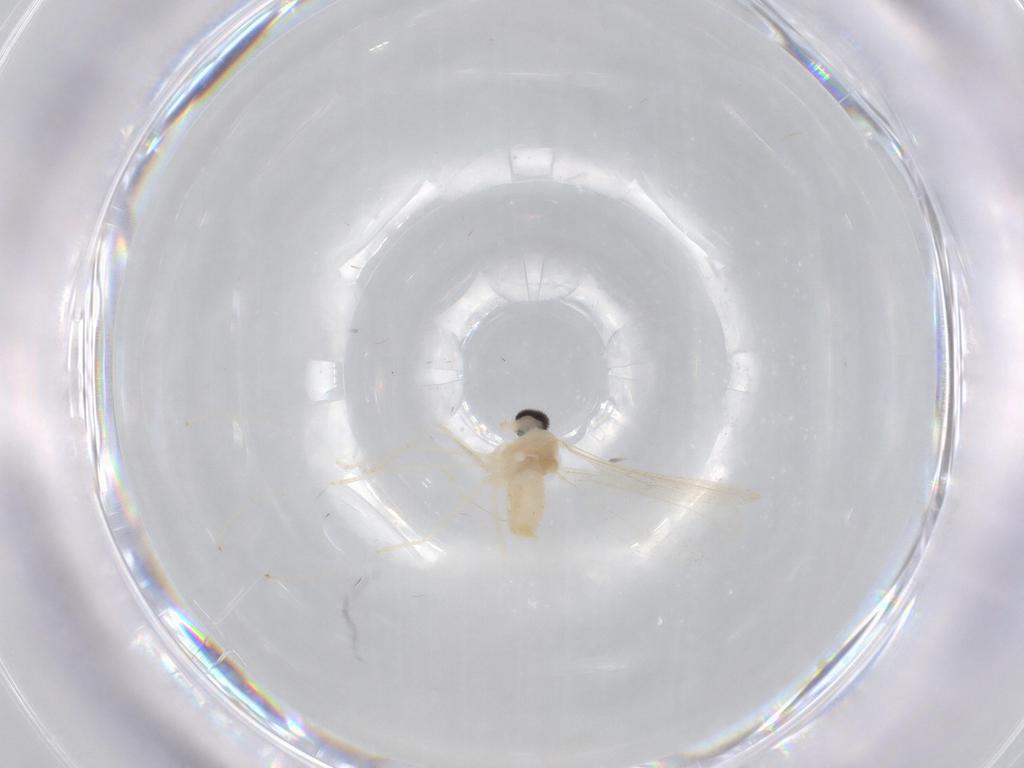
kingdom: Animalia
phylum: Arthropoda
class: Insecta
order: Diptera
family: Cecidomyiidae
